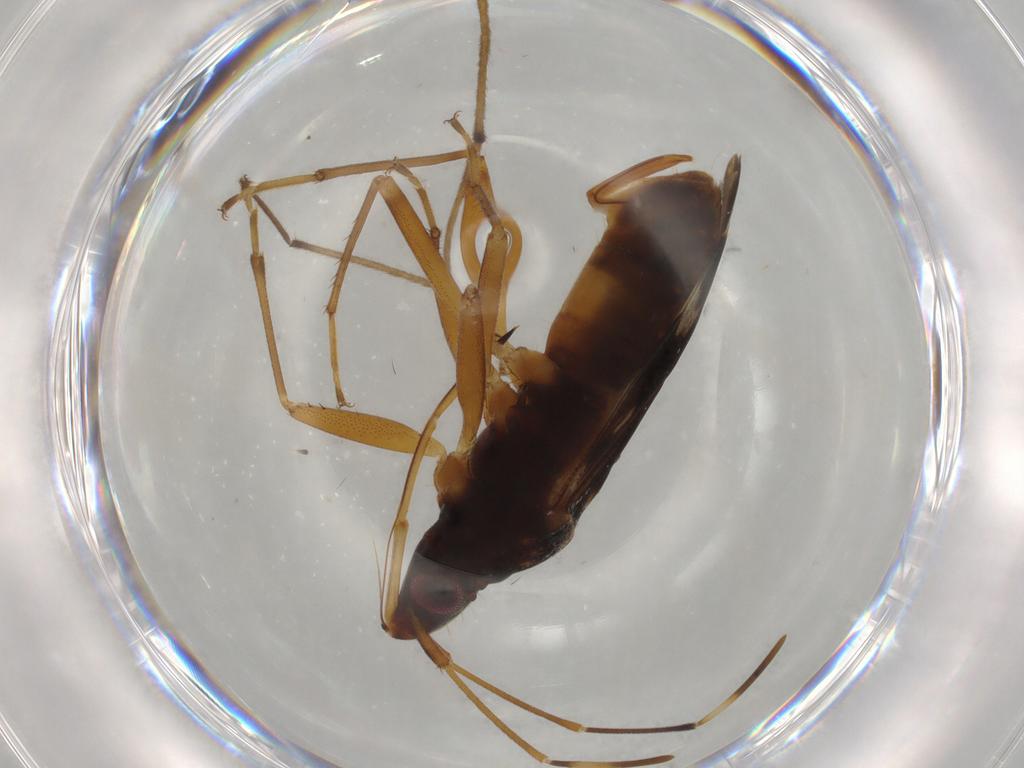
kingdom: Animalia
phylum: Arthropoda
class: Insecta
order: Hemiptera
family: Rhyparochromidae
